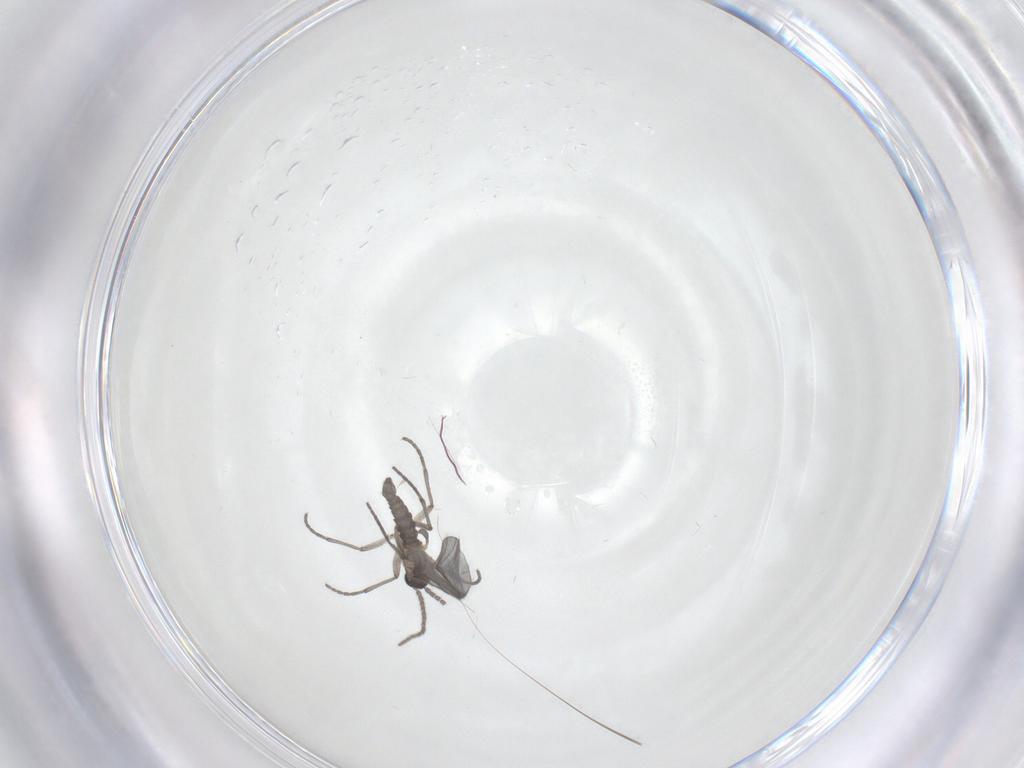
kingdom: Animalia
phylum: Arthropoda
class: Insecta
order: Diptera
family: Sciaridae
